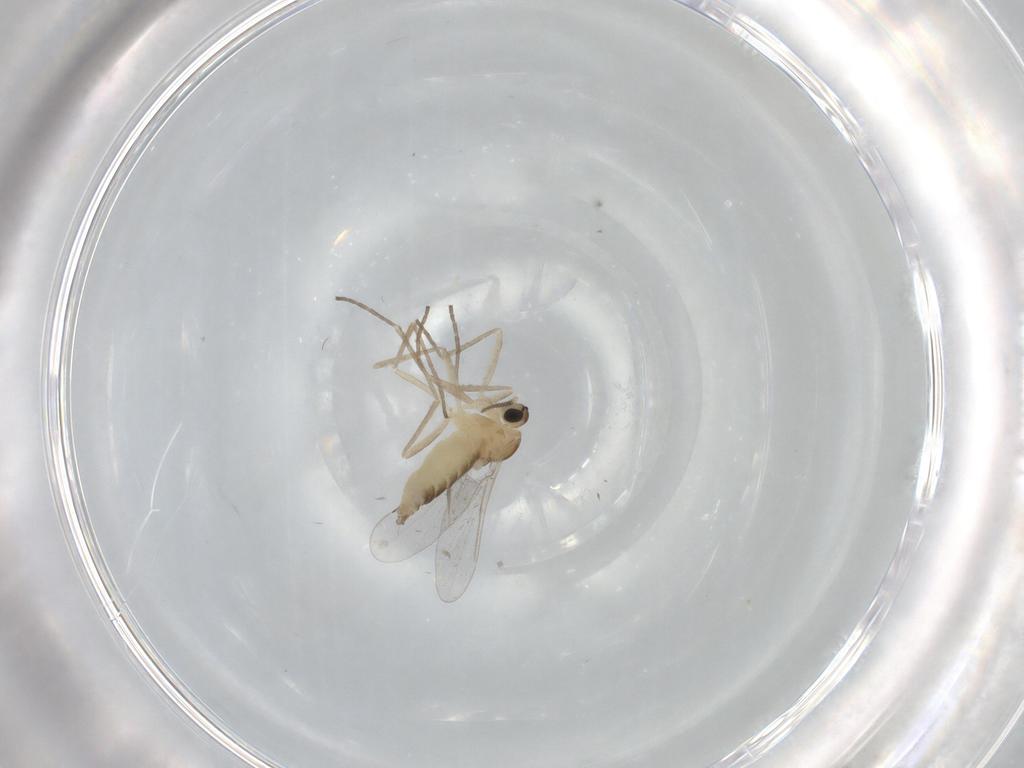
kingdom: Animalia
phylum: Arthropoda
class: Insecta
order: Diptera
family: Cecidomyiidae
